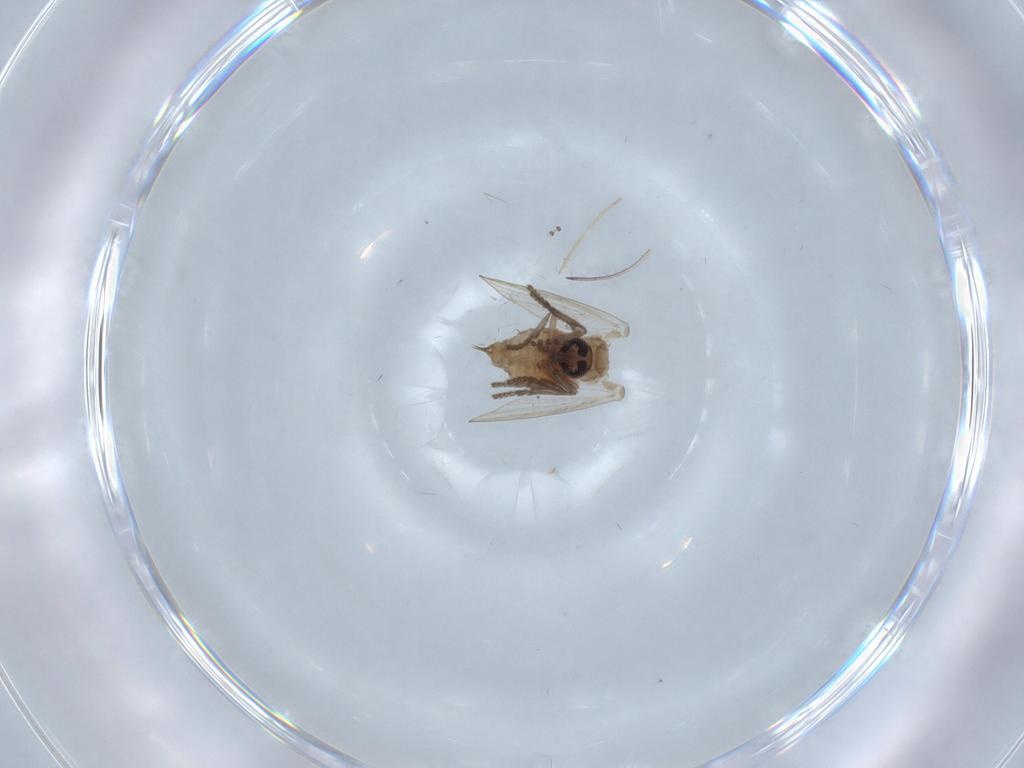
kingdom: Animalia
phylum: Arthropoda
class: Insecta
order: Diptera
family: Psychodidae
